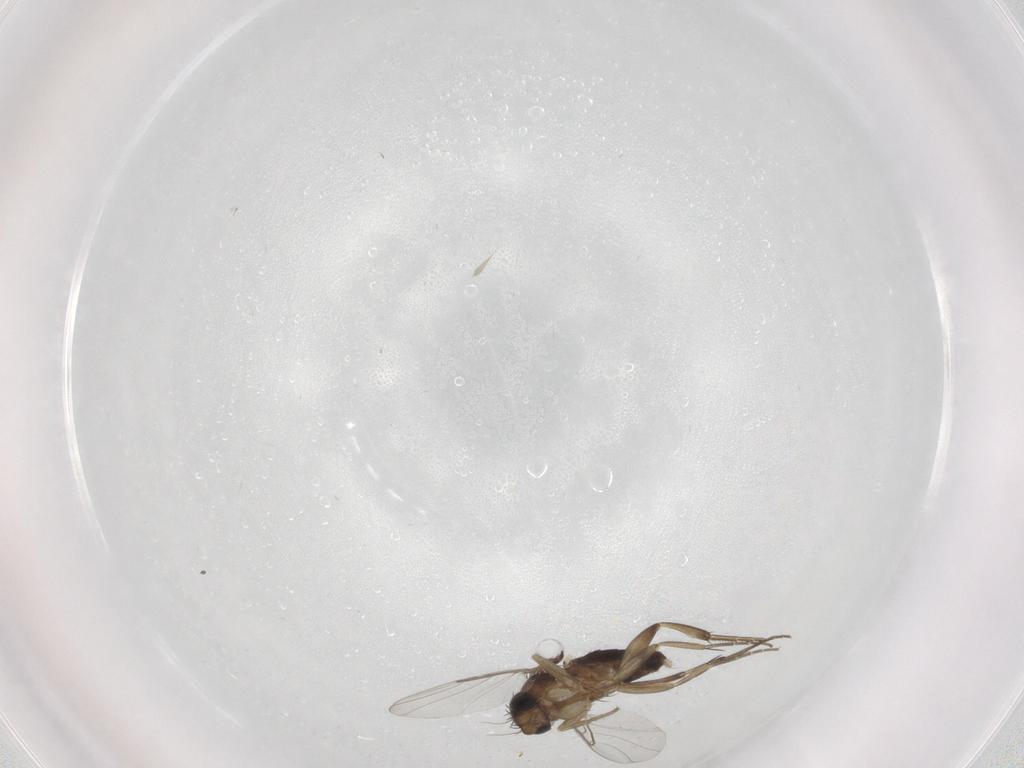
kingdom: Animalia
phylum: Arthropoda
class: Insecta
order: Diptera
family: Phoridae
